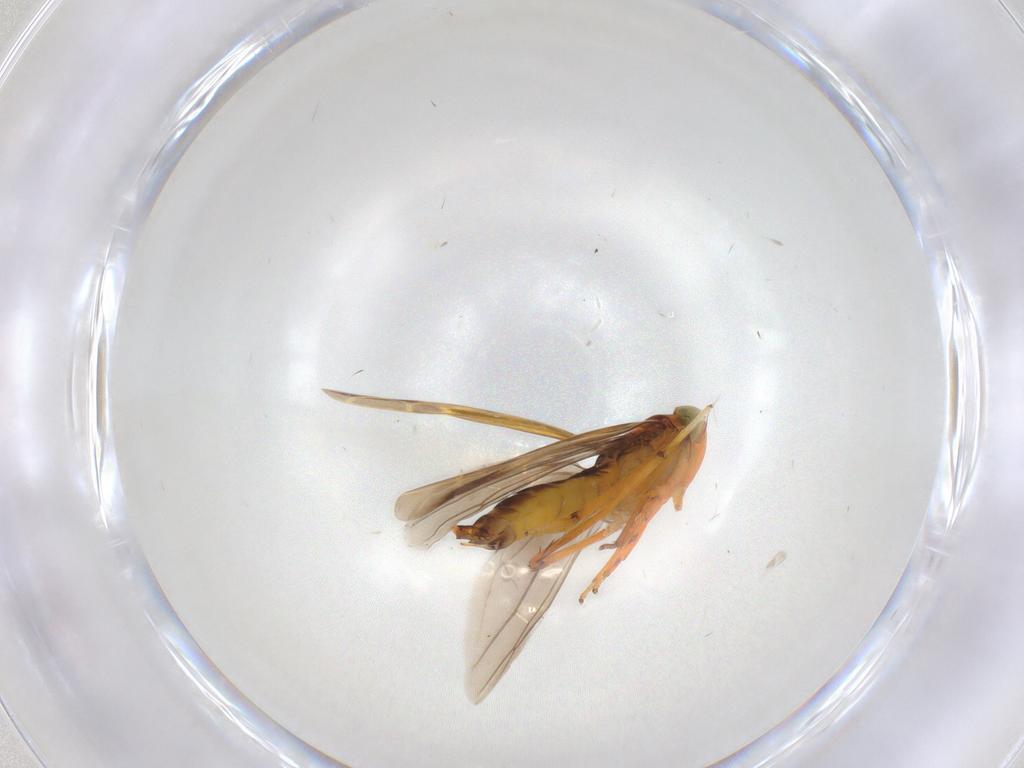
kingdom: Animalia
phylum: Arthropoda
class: Insecta
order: Hemiptera
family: Cicadellidae
